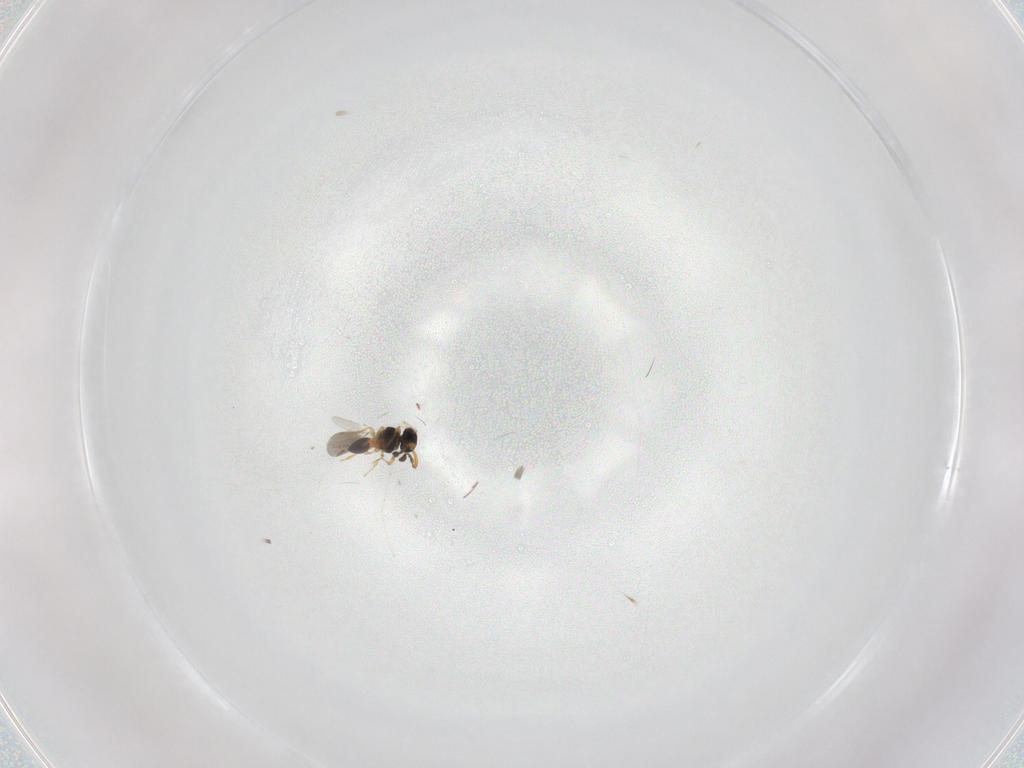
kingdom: Animalia
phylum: Arthropoda
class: Insecta
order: Hymenoptera
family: Platygastridae
